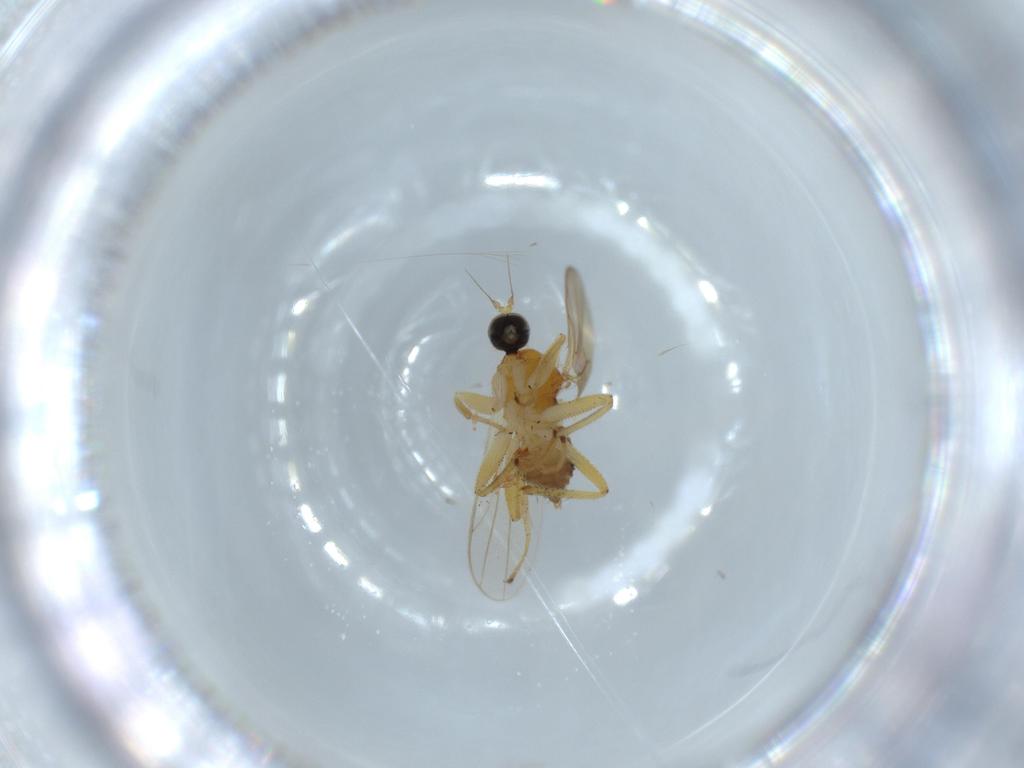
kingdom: Animalia
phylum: Arthropoda
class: Insecta
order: Diptera
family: Hybotidae
